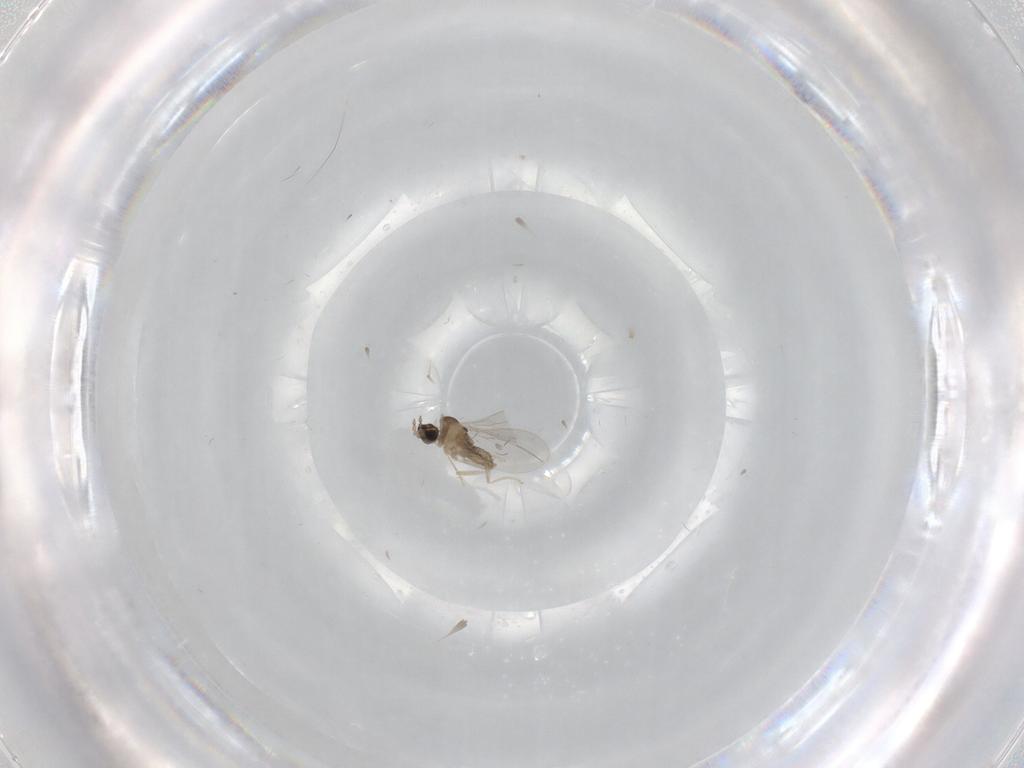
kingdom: Animalia
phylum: Arthropoda
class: Insecta
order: Diptera
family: Cecidomyiidae
